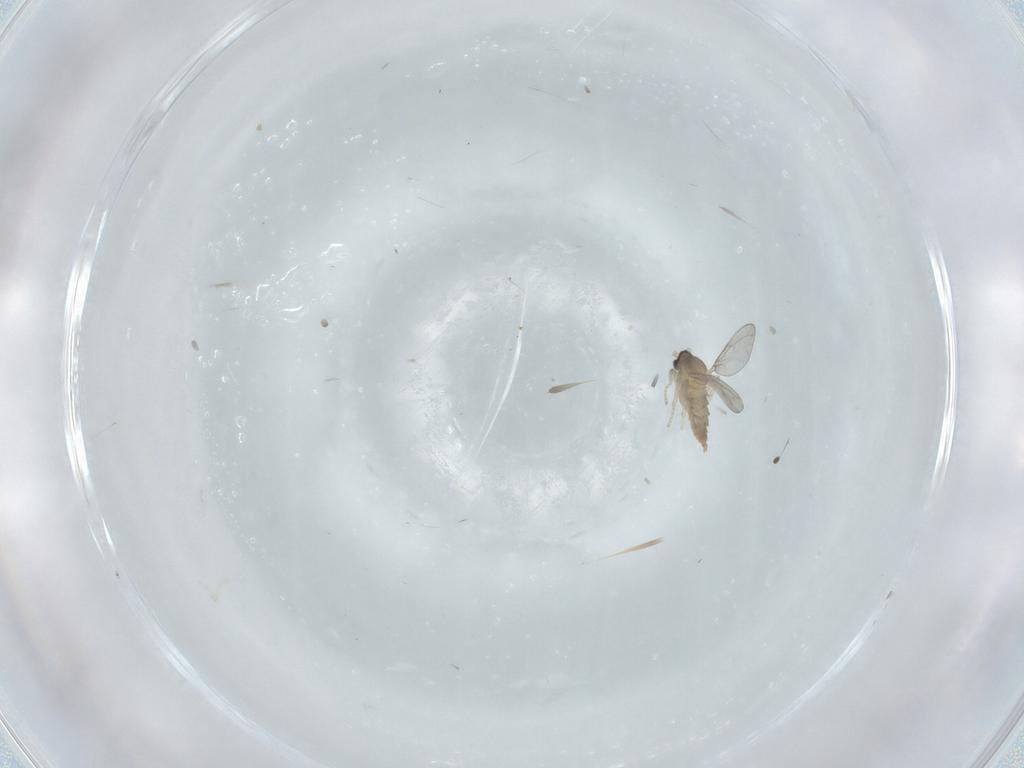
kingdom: Animalia
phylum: Arthropoda
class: Insecta
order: Diptera
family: Cecidomyiidae
